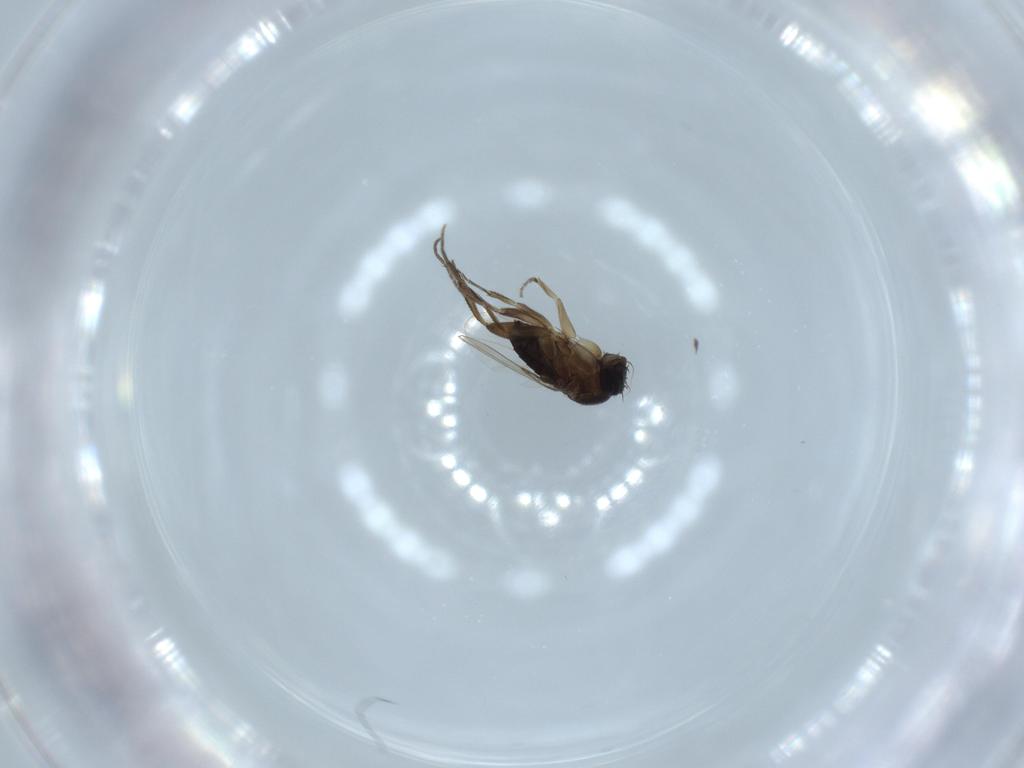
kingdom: Animalia
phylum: Arthropoda
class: Insecta
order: Diptera
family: Phoridae
